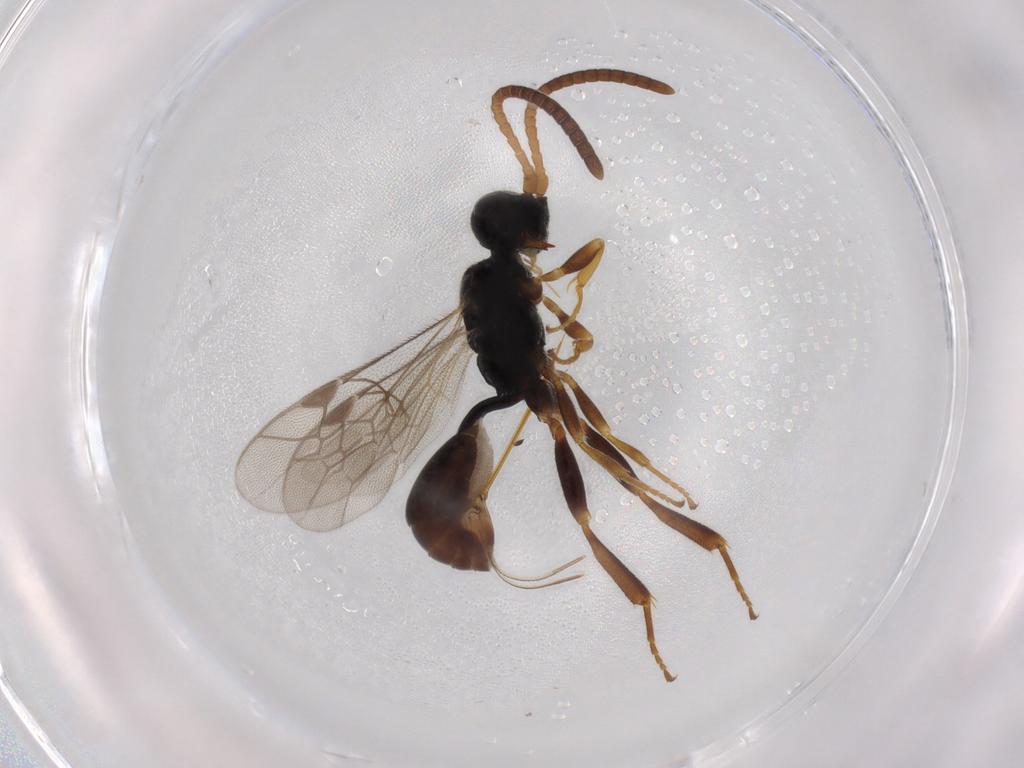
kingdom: Animalia
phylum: Arthropoda
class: Insecta
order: Hymenoptera
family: Ichneumonidae
